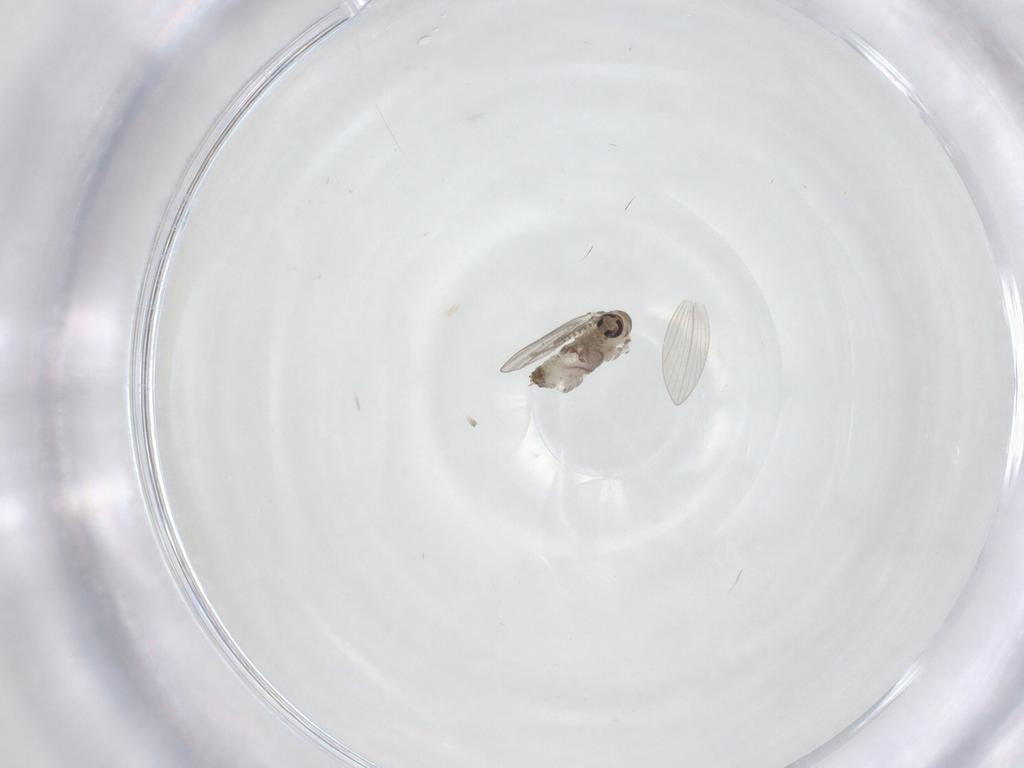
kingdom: Animalia
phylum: Arthropoda
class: Insecta
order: Diptera
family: Psychodidae
